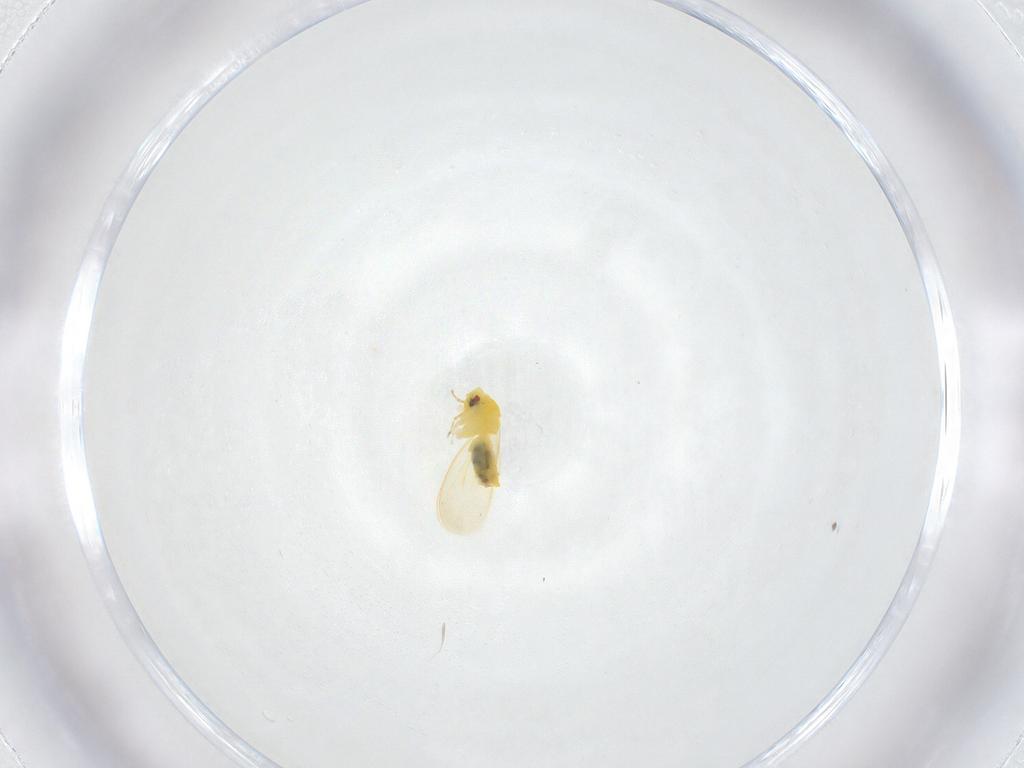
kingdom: Animalia
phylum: Arthropoda
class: Insecta
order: Hemiptera
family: Aleyrodidae
